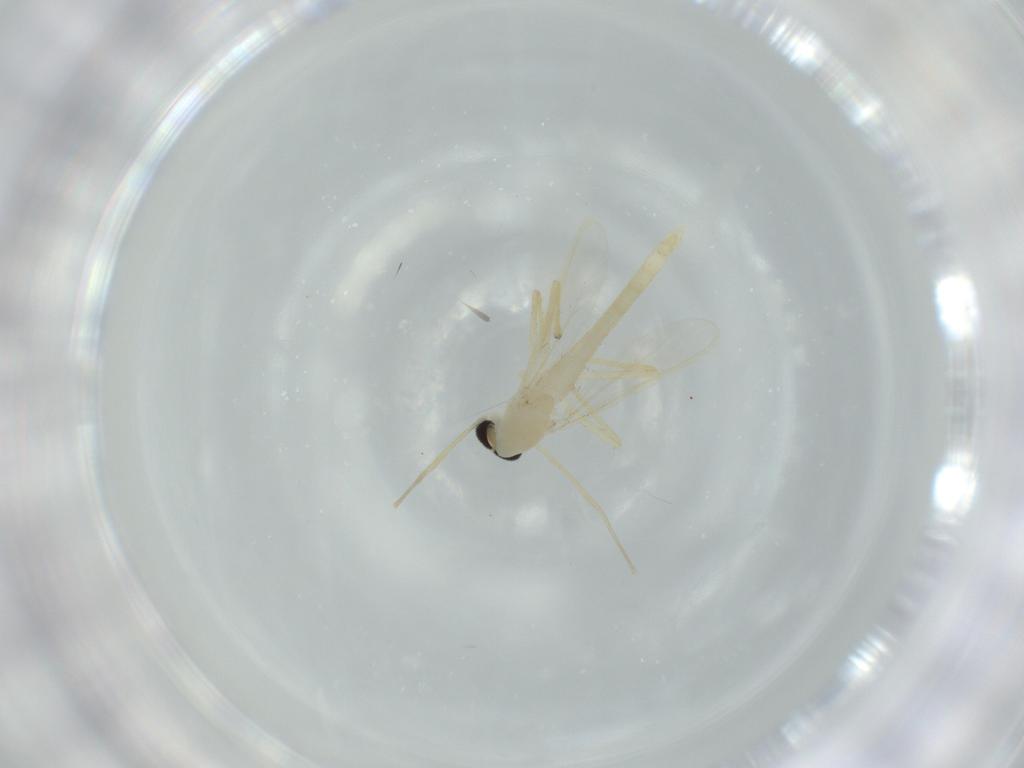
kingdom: Animalia
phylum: Arthropoda
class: Insecta
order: Diptera
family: Chironomidae
